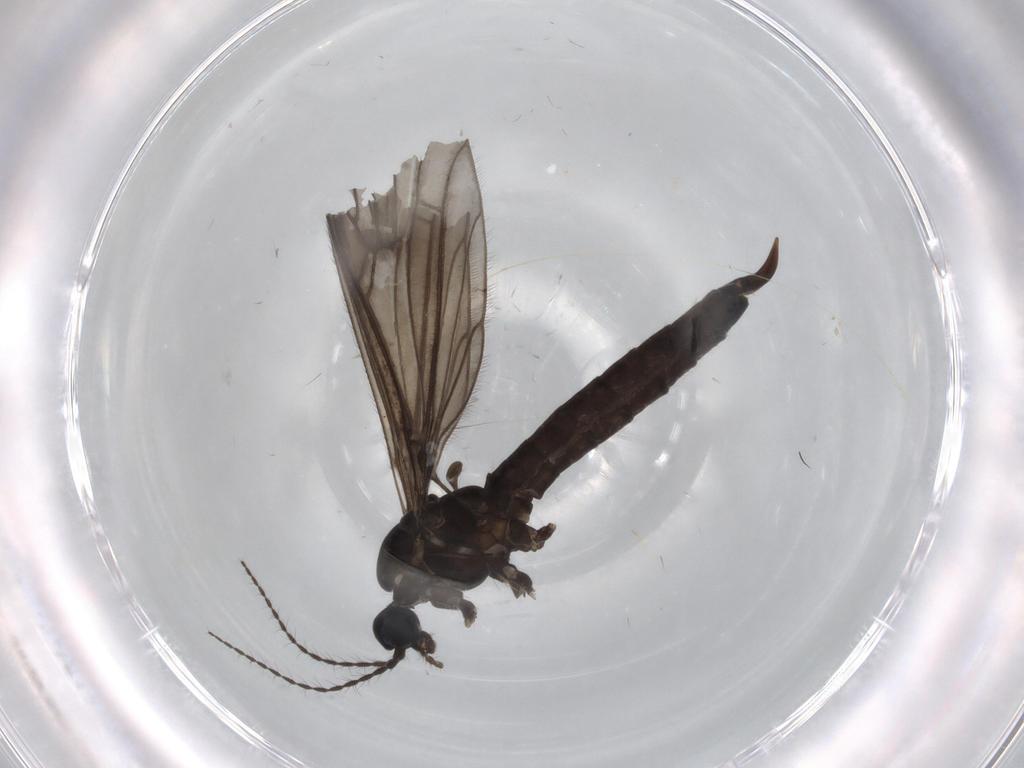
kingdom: Animalia
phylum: Arthropoda
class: Insecta
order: Diptera
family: Limoniidae
